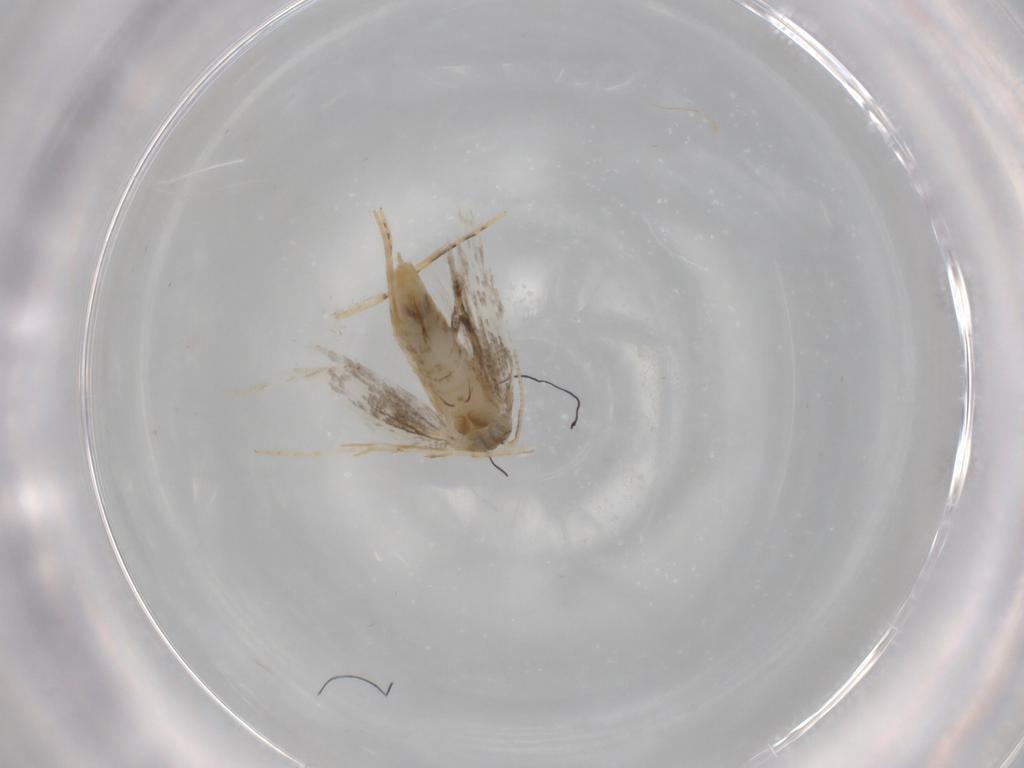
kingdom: Animalia
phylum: Arthropoda
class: Insecta
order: Lepidoptera
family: Tineidae
